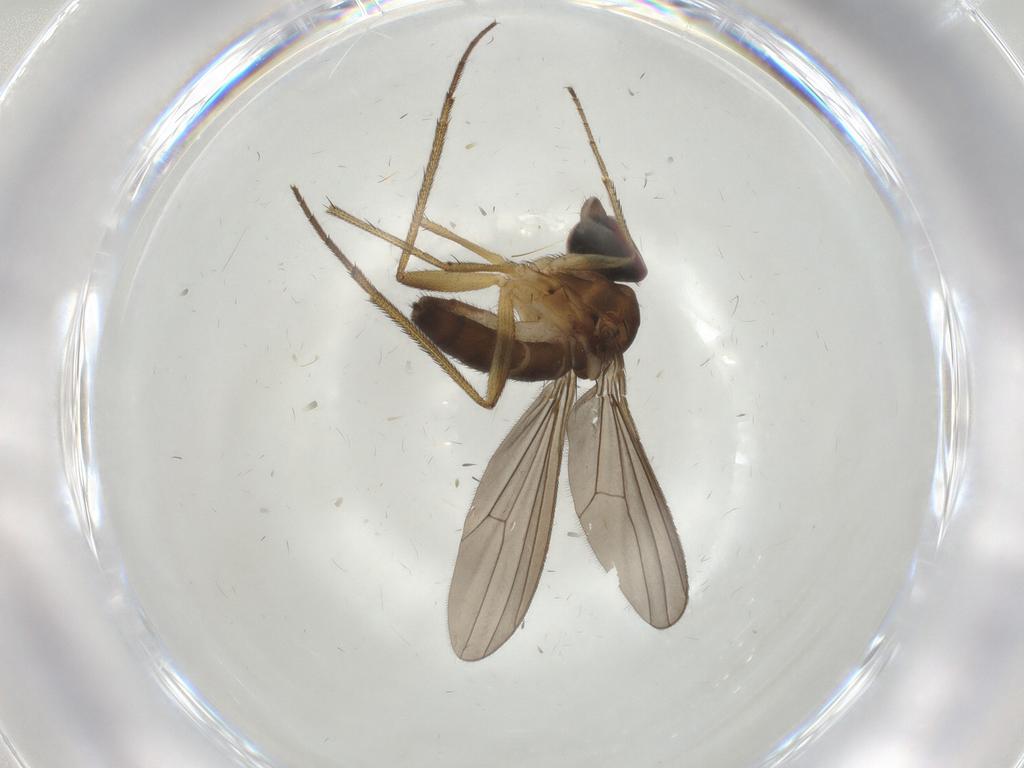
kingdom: Animalia
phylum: Arthropoda
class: Insecta
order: Diptera
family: Dolichopodidae
